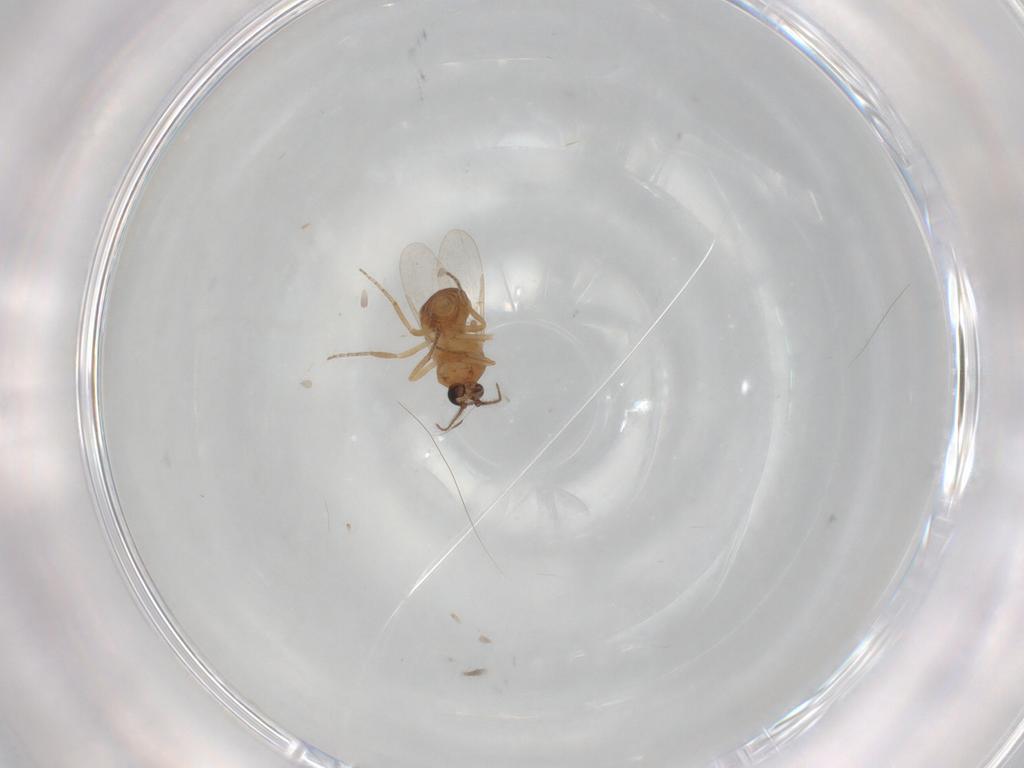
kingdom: Animalia
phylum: Arthropoda
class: Insecta
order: Diptera
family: Ceratopogonidae
